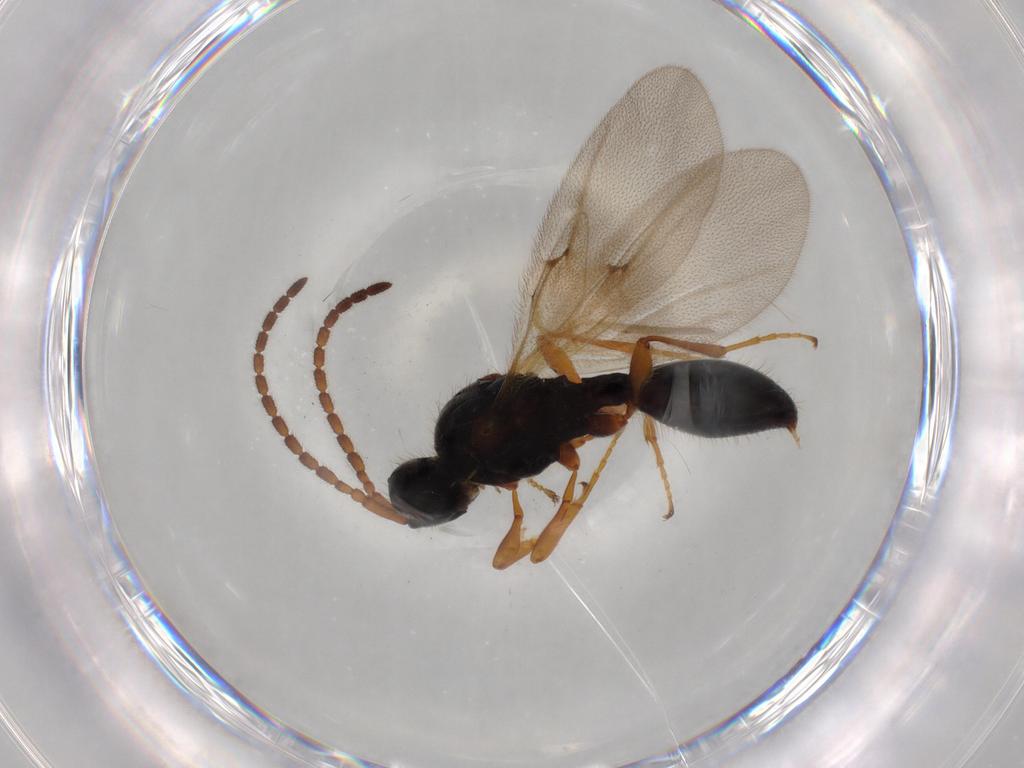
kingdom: Animalia
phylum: Arthropoda
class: Insecta
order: Hymenoptera
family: Diapriidae
